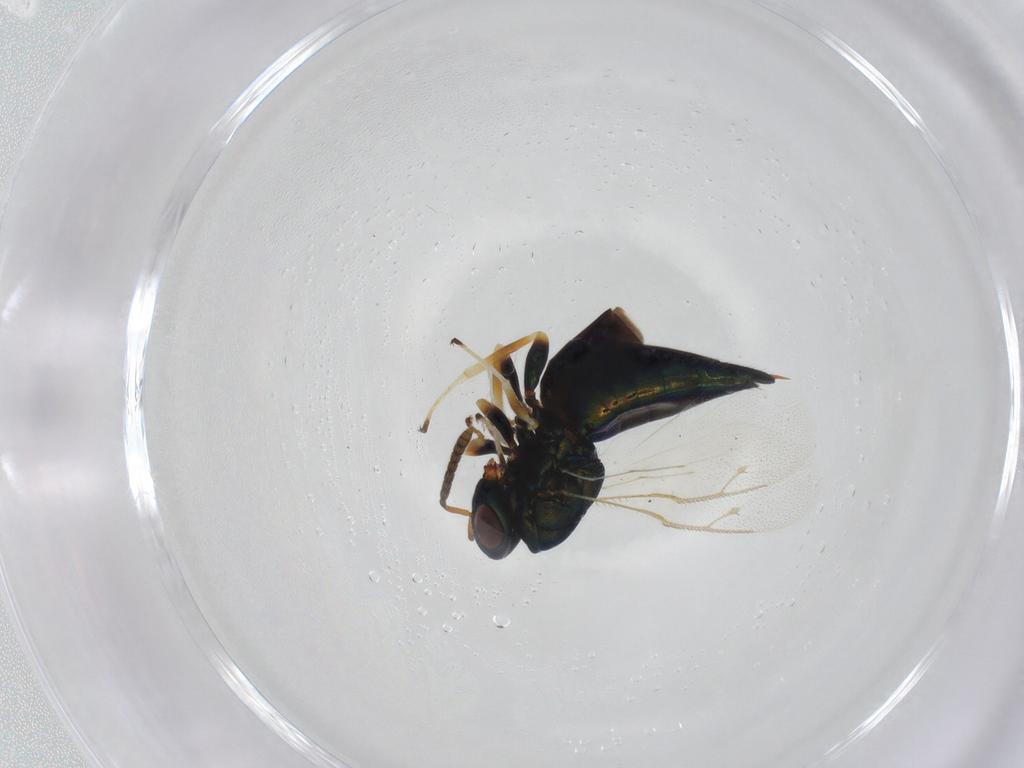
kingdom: Animalia
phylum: Arthropoda
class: Insecta
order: Hymenoptera
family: Pteromalidae
